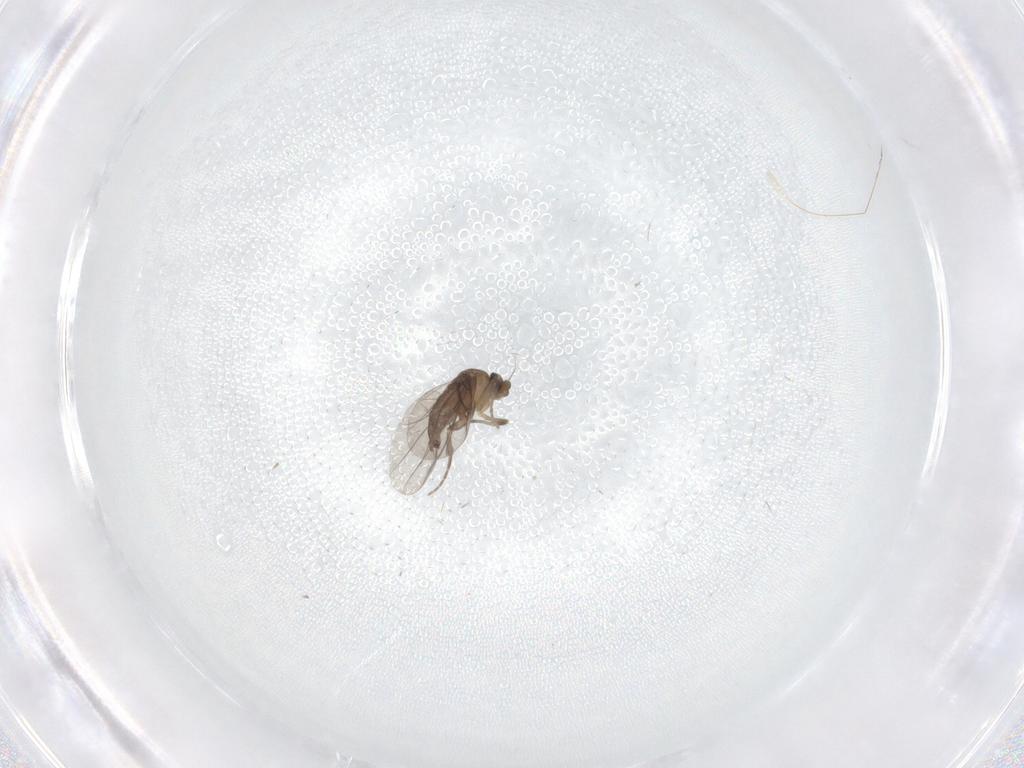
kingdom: Animalia
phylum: Arthropoda
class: Insecta
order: Diptera
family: Phoridae
